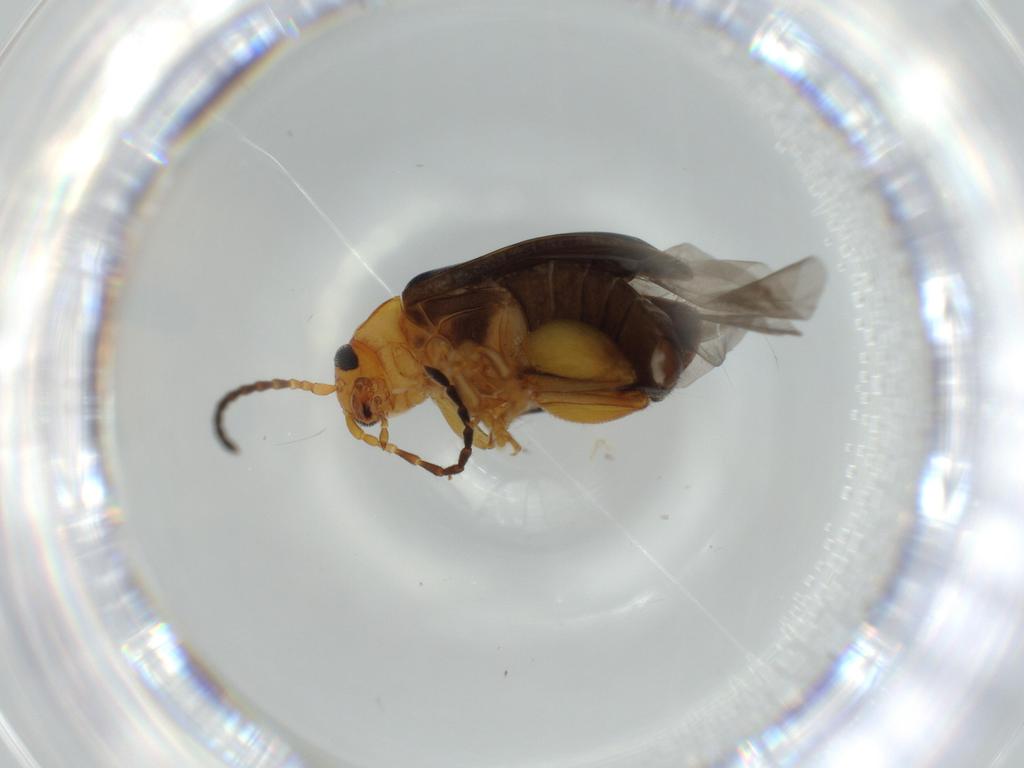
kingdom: Animalia
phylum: Arthropoda
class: Insecta
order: Coleoptera
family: Chrysomelidae
